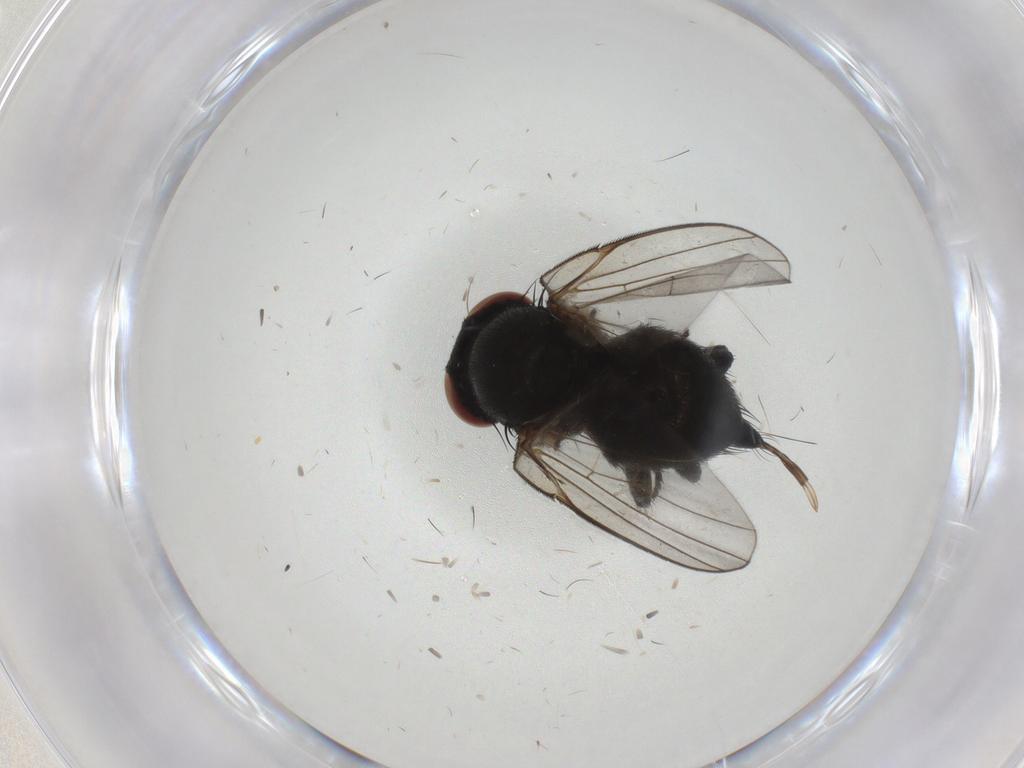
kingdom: Animalia
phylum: Arthropoda
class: Insecta
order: Diptera
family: Agromyzidae
